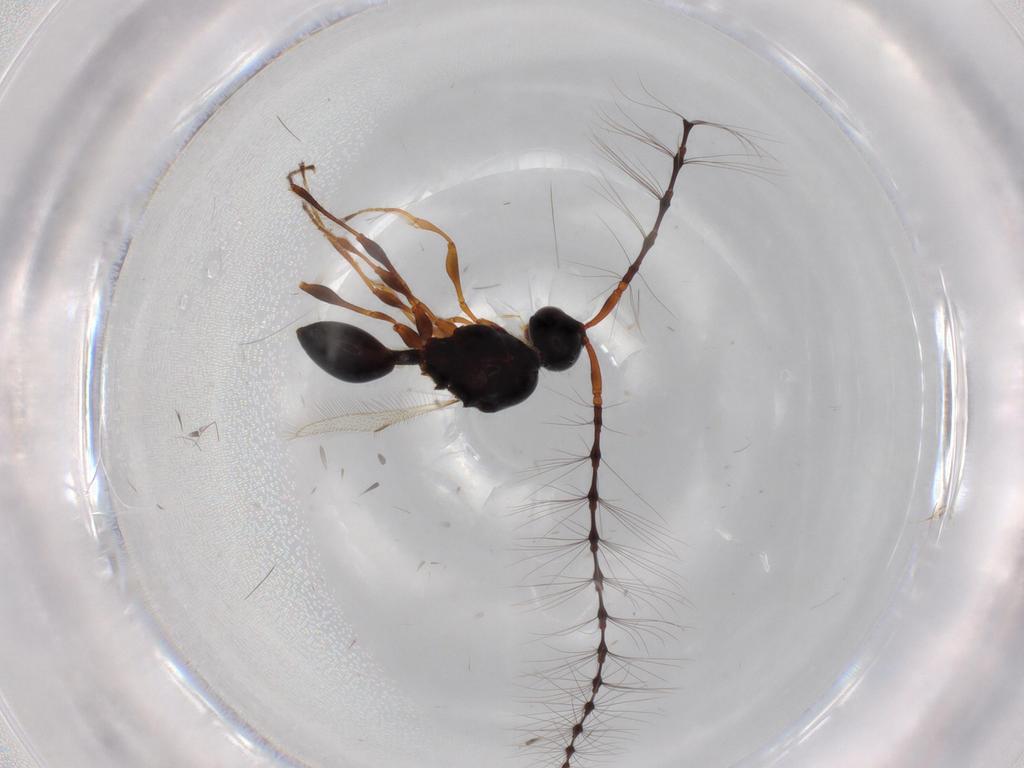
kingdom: Animalia
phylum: Arthropoda
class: Insecta
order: Hymenoptera
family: Diapriidae
